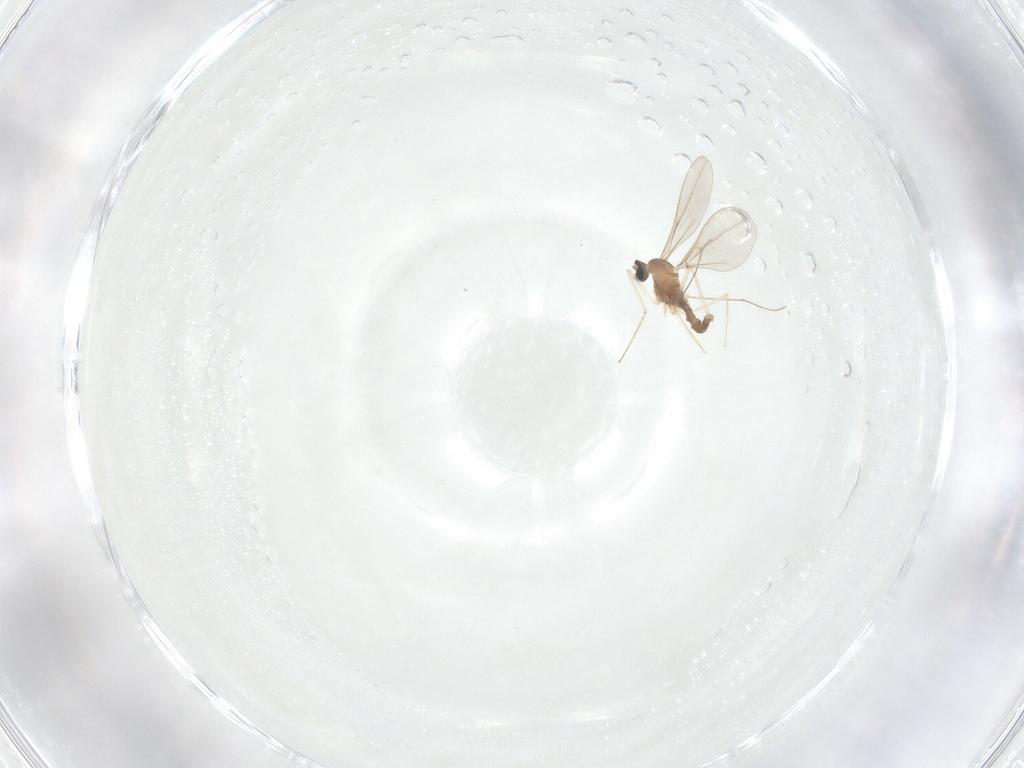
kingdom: Animalia
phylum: Arthropoda
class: Insecta
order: Diptera
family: Cecidomyiidae
